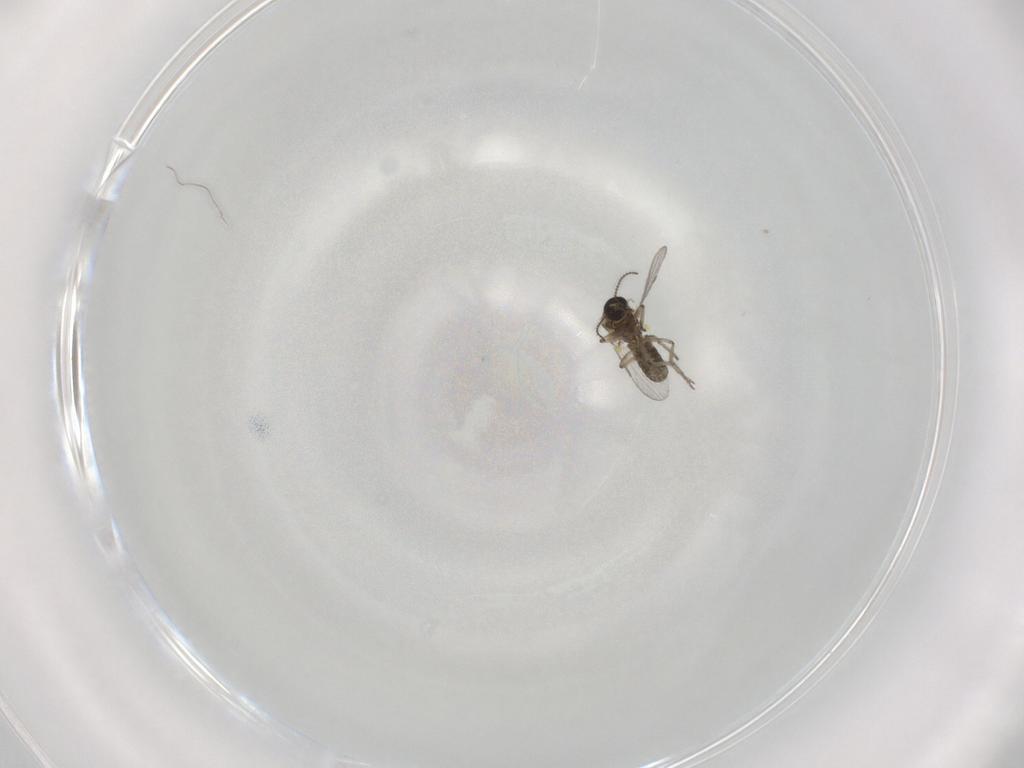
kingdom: Animalia
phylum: Arthropoda
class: Insecta
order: Diptera
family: Ceratopogonidae
